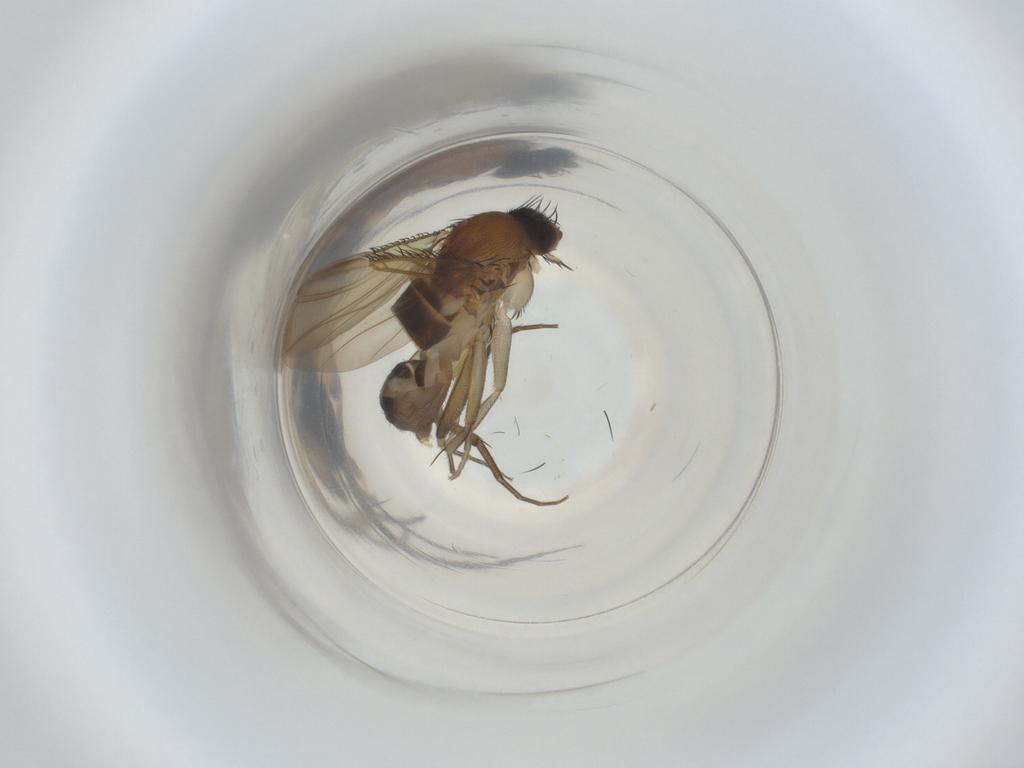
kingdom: Animalia
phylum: Arthropoda
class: Insecta
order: Diptera
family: Phoridae
